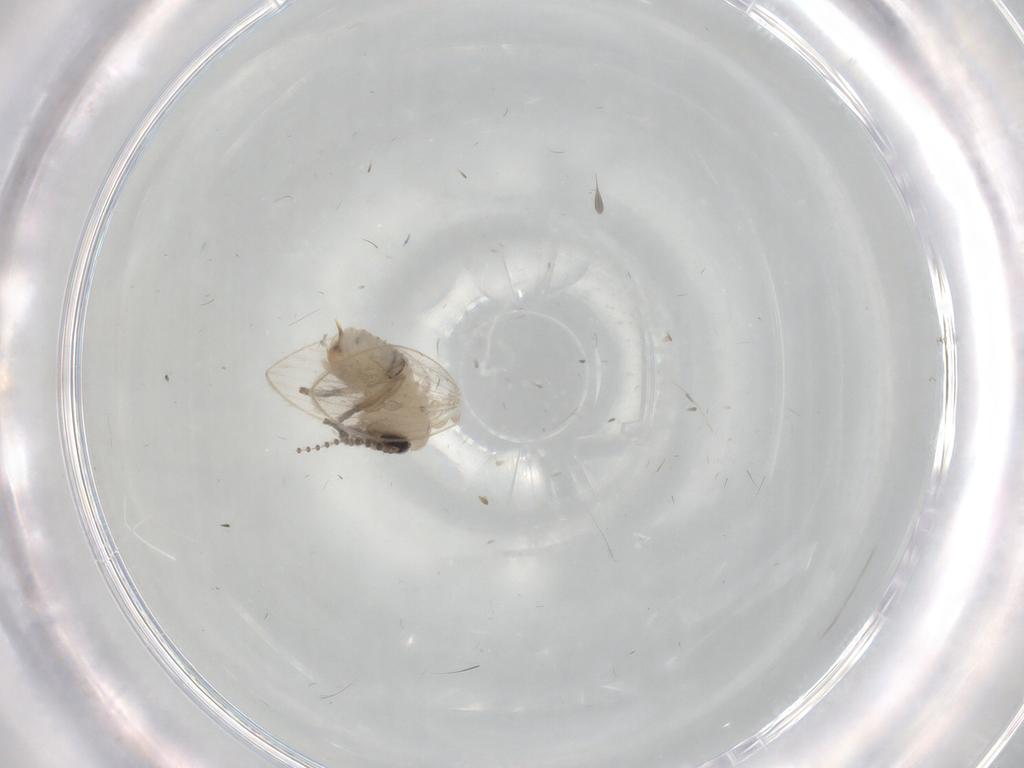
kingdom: Animalia
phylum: Arthropoda
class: Insecta
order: Diptera
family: Psychodidae
